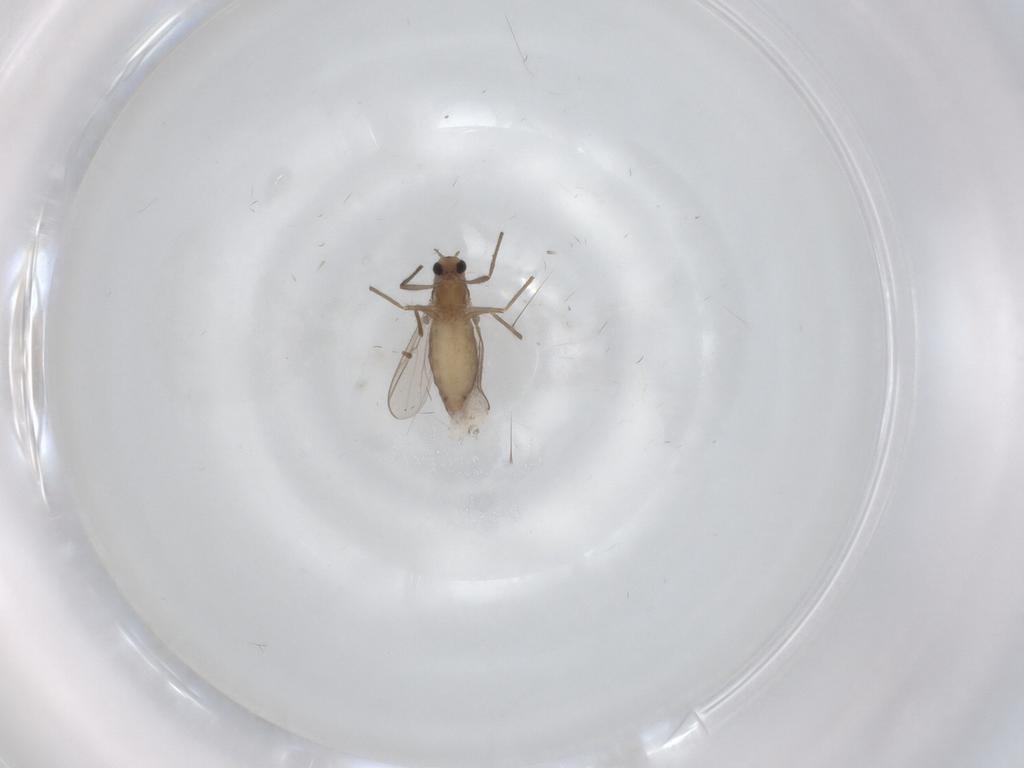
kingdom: Animalia
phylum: Arthropoda
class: Insecta
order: Diptera
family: Chironomidae
